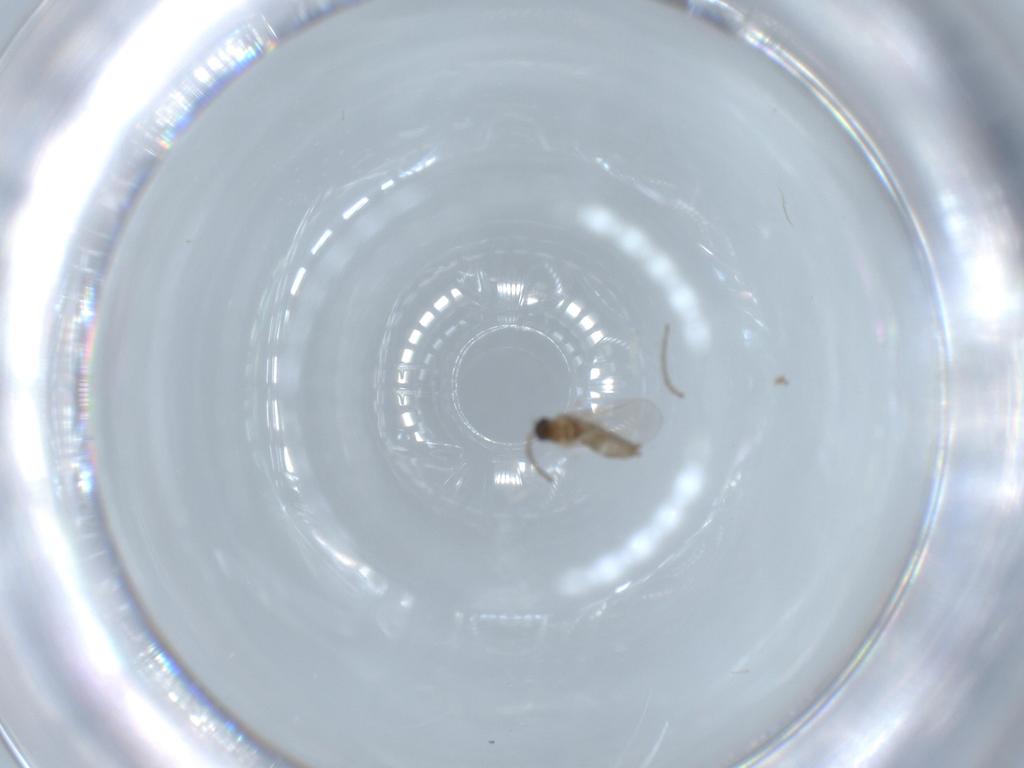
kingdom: Animalia
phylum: Arthropoda
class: Insecta
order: Diptera
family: Cecidomyiidae
